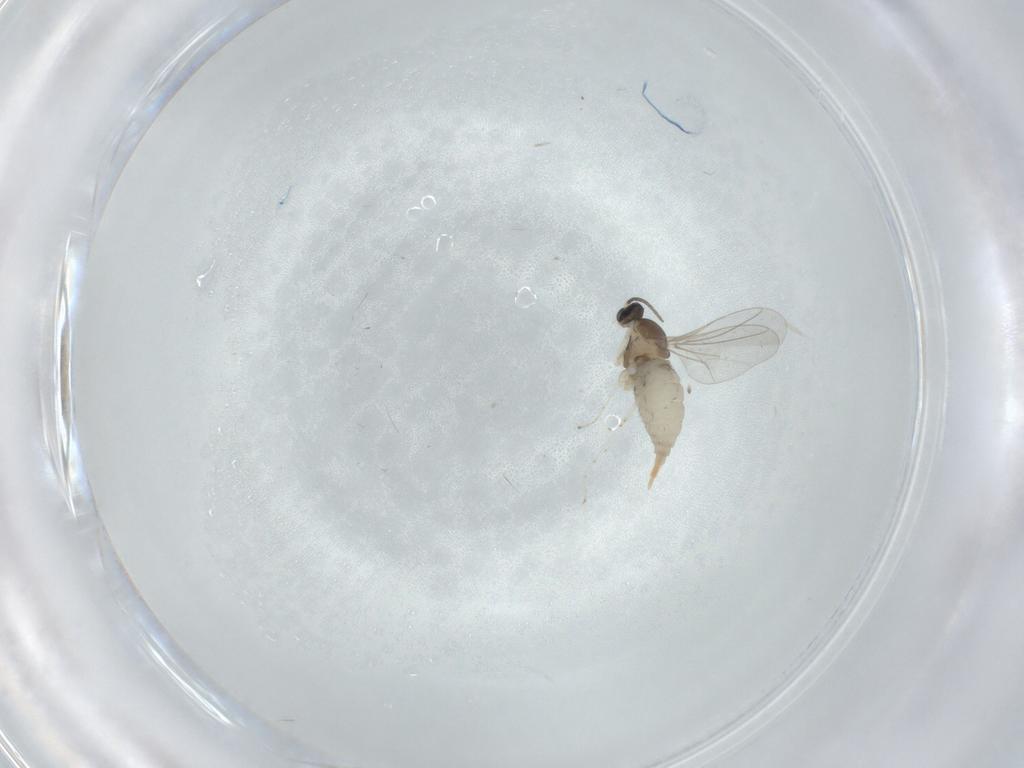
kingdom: Animalia
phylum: Arthropoda
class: Insecta
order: Diptera
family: Cecidomyiidae
